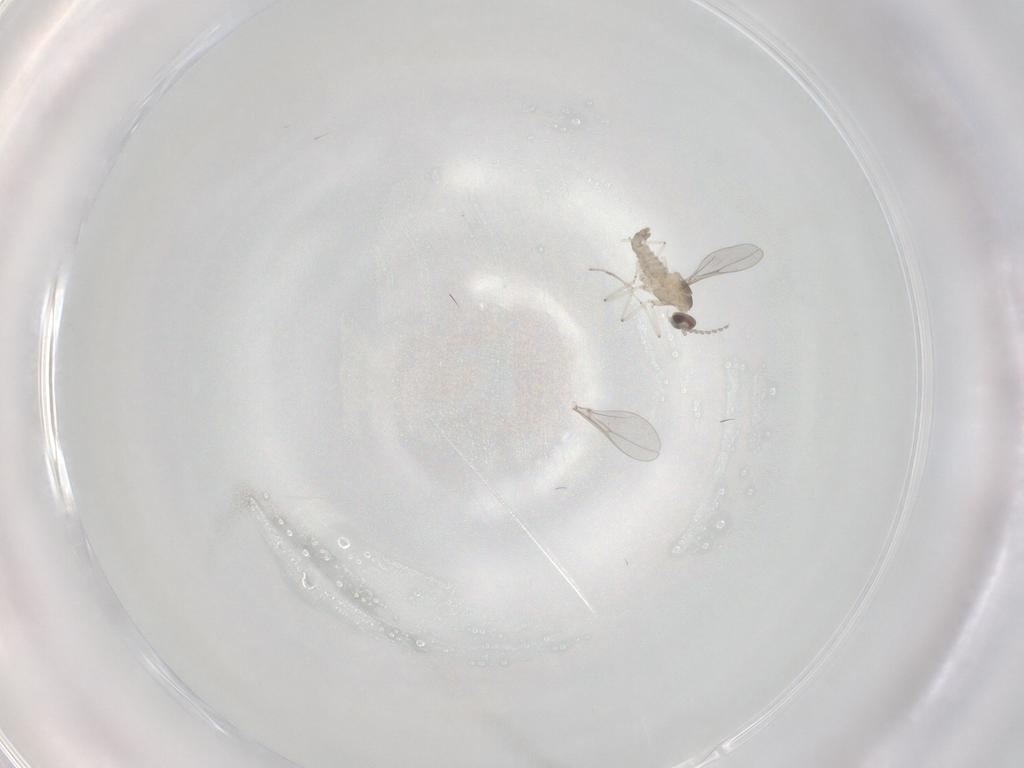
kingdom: Animalia
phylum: Arthropoda
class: Insecta
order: Diptera
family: Cecidomyiidae
